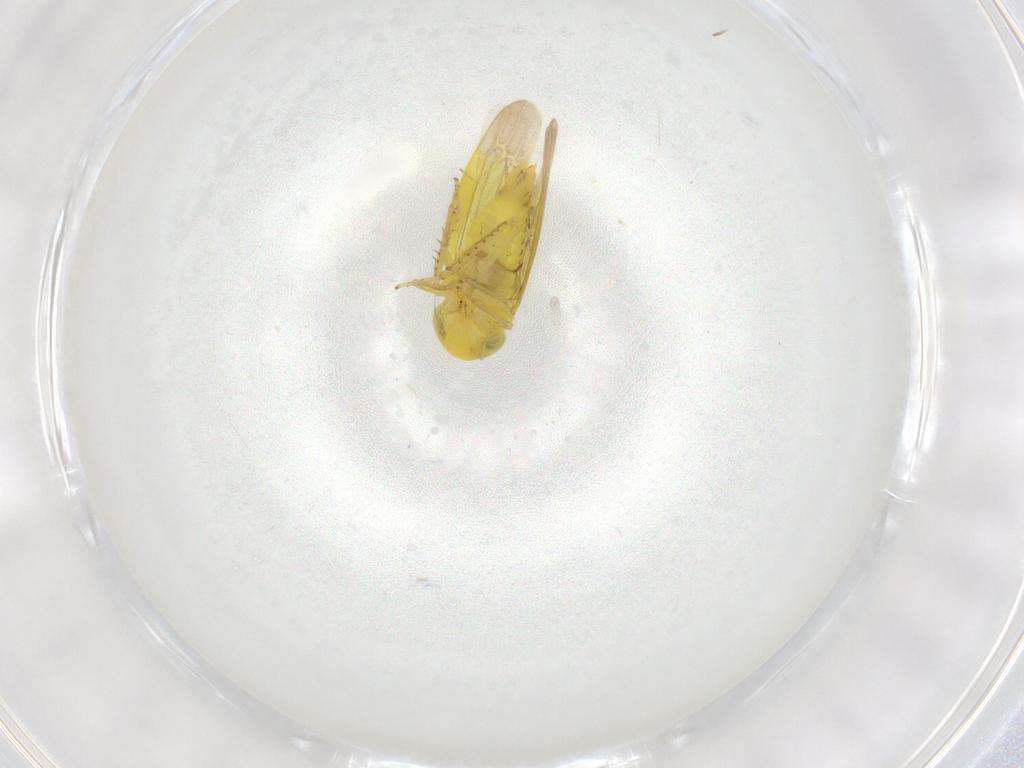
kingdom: Animalia
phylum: Arthropoda
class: Insecta
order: Hemiptera
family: Cicadellidae
